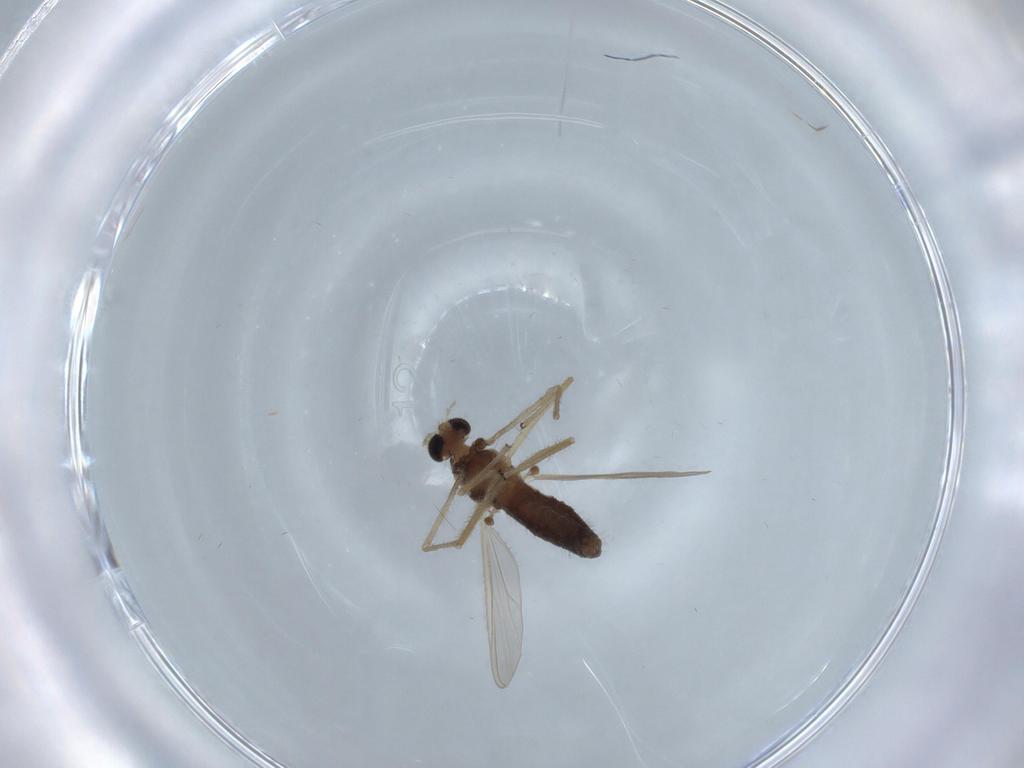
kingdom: Animalia
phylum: Arthropoda
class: Insecta
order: Diptera
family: Chironomidae
